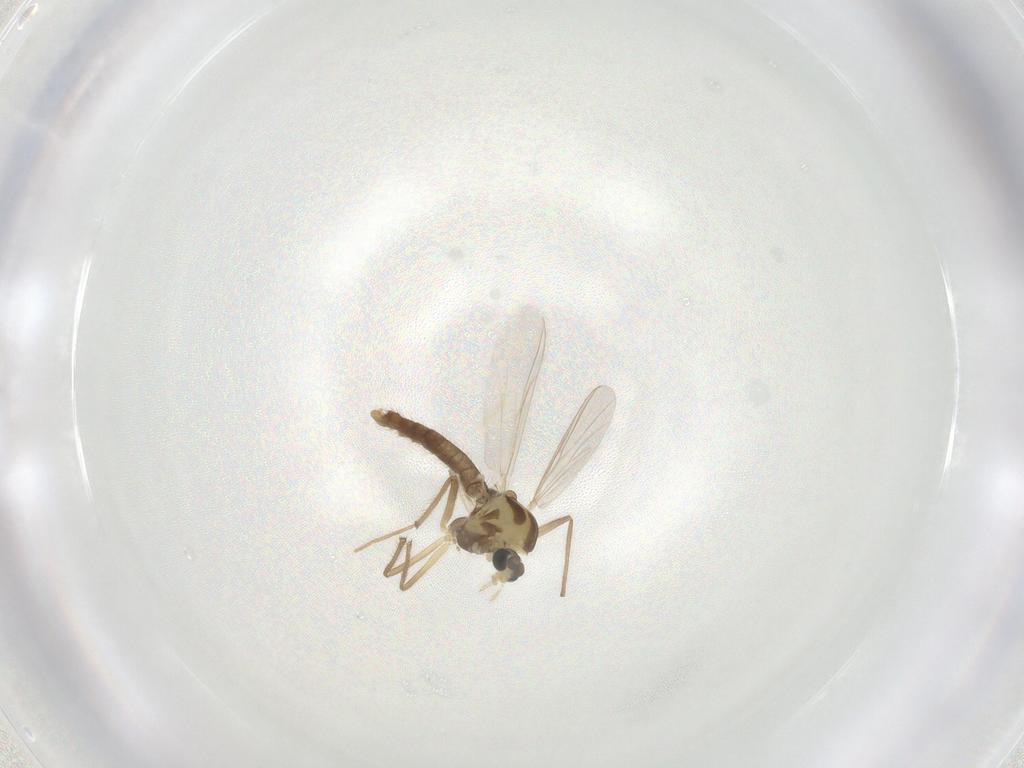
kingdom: Animalia
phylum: Arthropoda
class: Insecta
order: Diptera
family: Chironomidae
